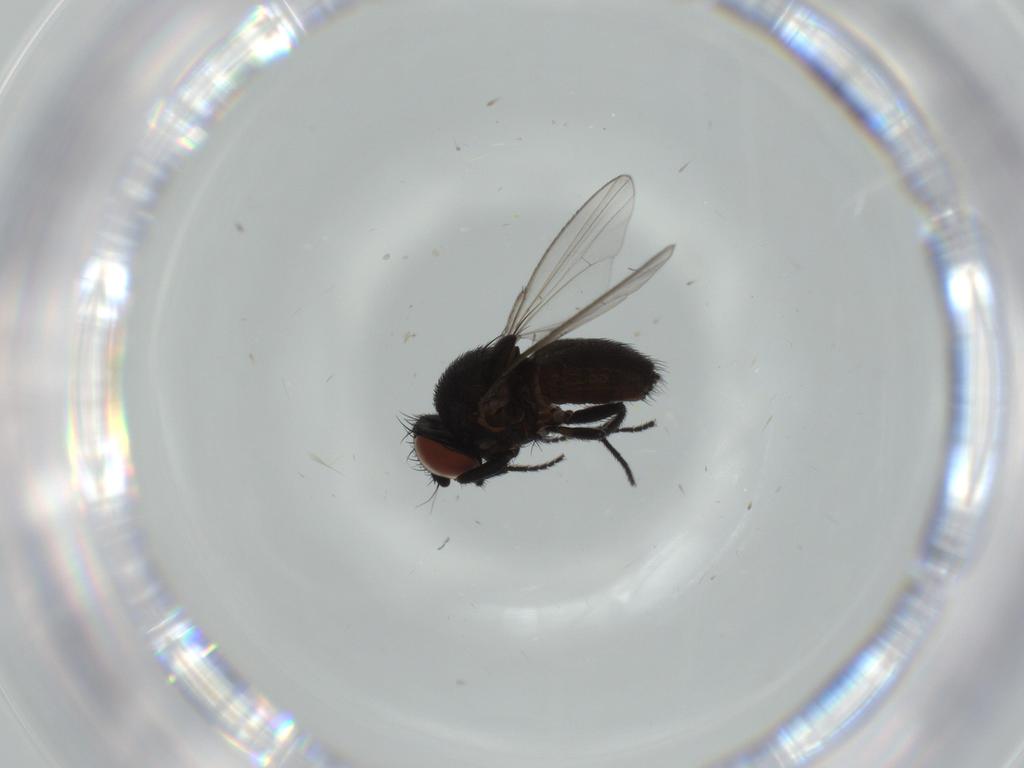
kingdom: Animalia
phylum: Arthropoda
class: Insecta
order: Diptera
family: Milichiidae
